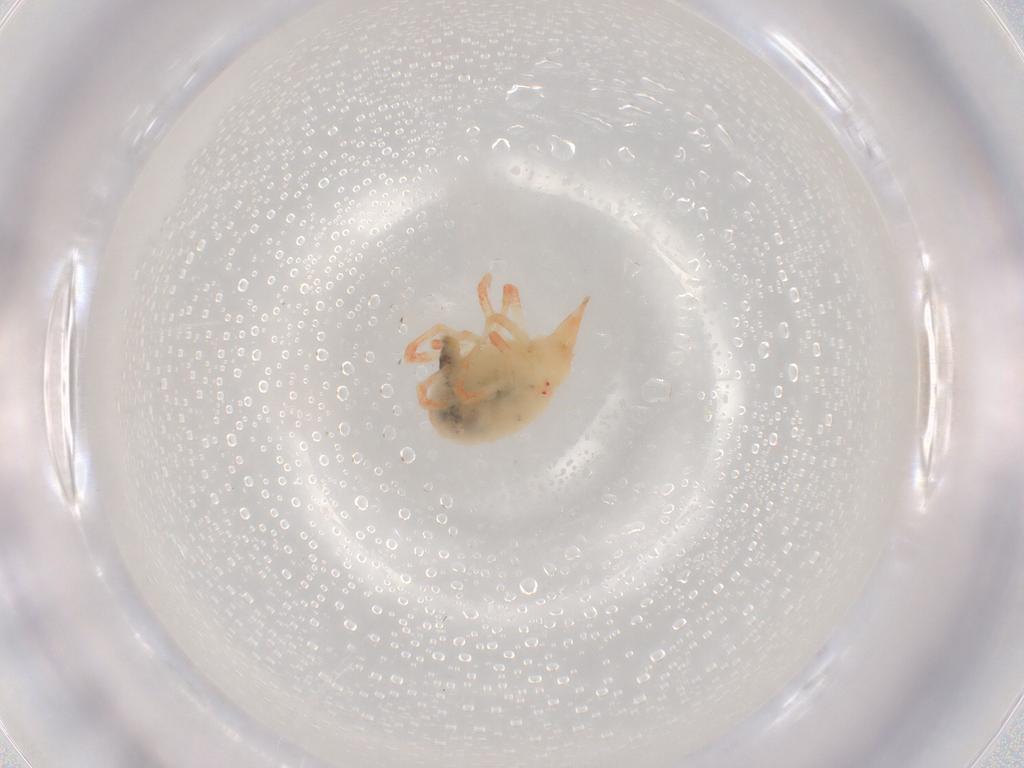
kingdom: Animalia
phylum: Arthropoda
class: Arachnida
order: Trombidiformes
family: Bdellidae
